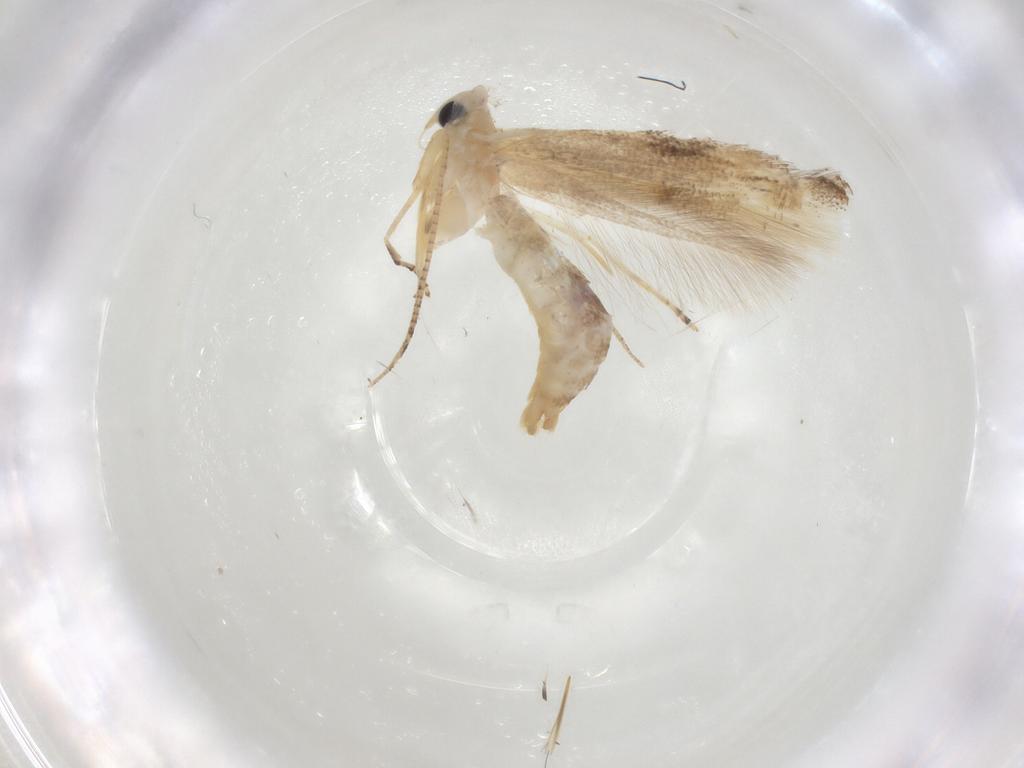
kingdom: Animalia
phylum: Arthropoda
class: Insecta
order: Lepidoptera
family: Bucculatricidae
